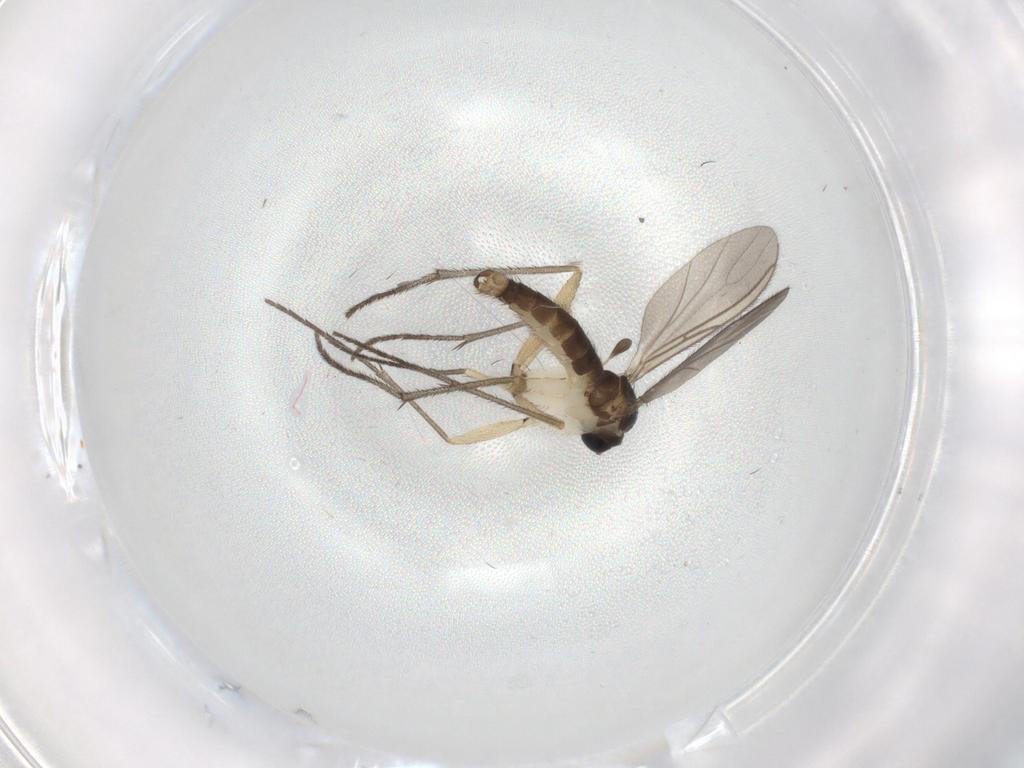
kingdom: Animalia
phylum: Arthropoda
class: Insecta
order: Diptera
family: Sciaridae
